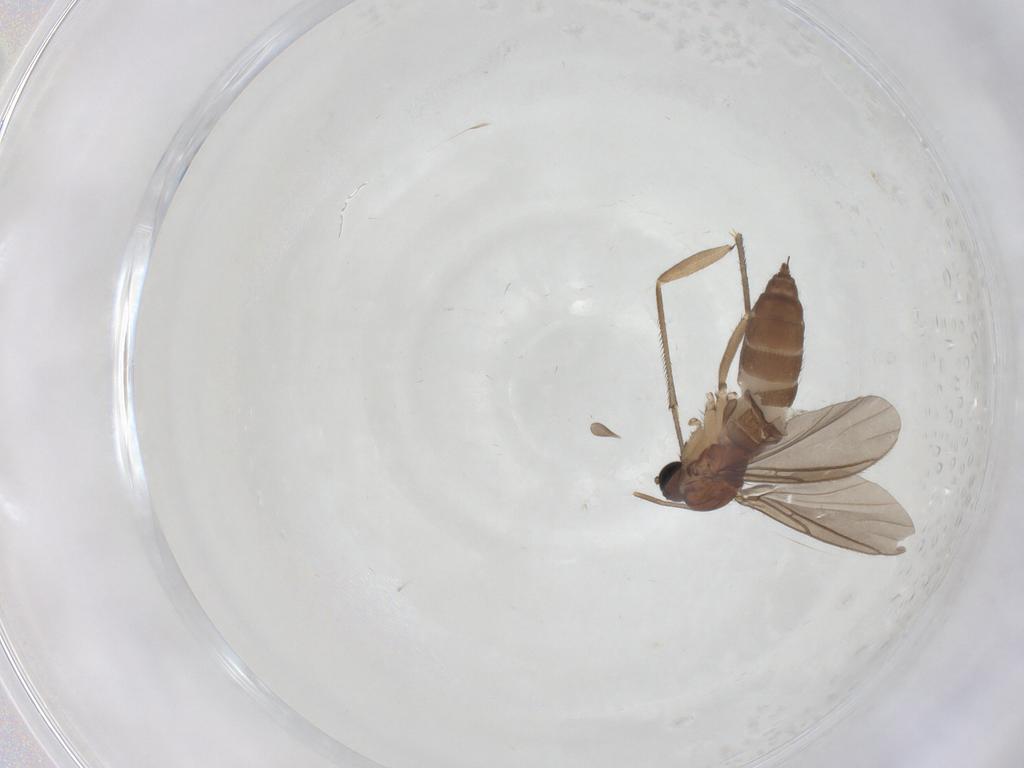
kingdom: Animalia
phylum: Arthropoda
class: Insecta
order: Diptera
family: Sciaridae
